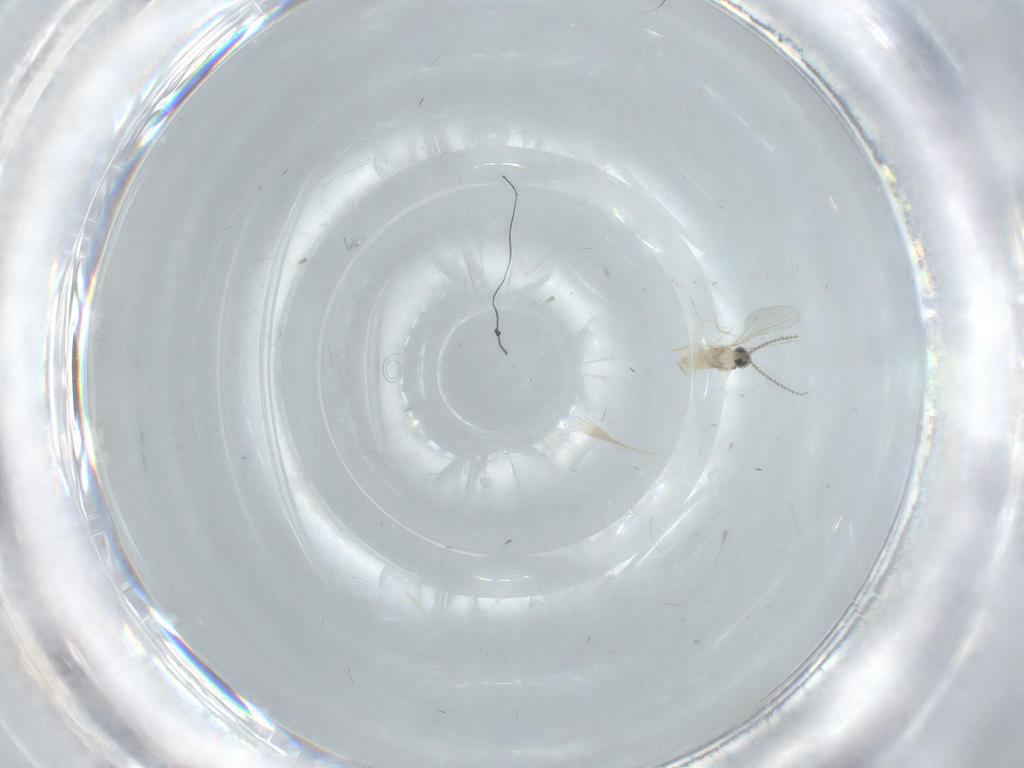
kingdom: Animalia
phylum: Arthropoda
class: Insecta
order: Diptera
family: Cecidomyiidae
